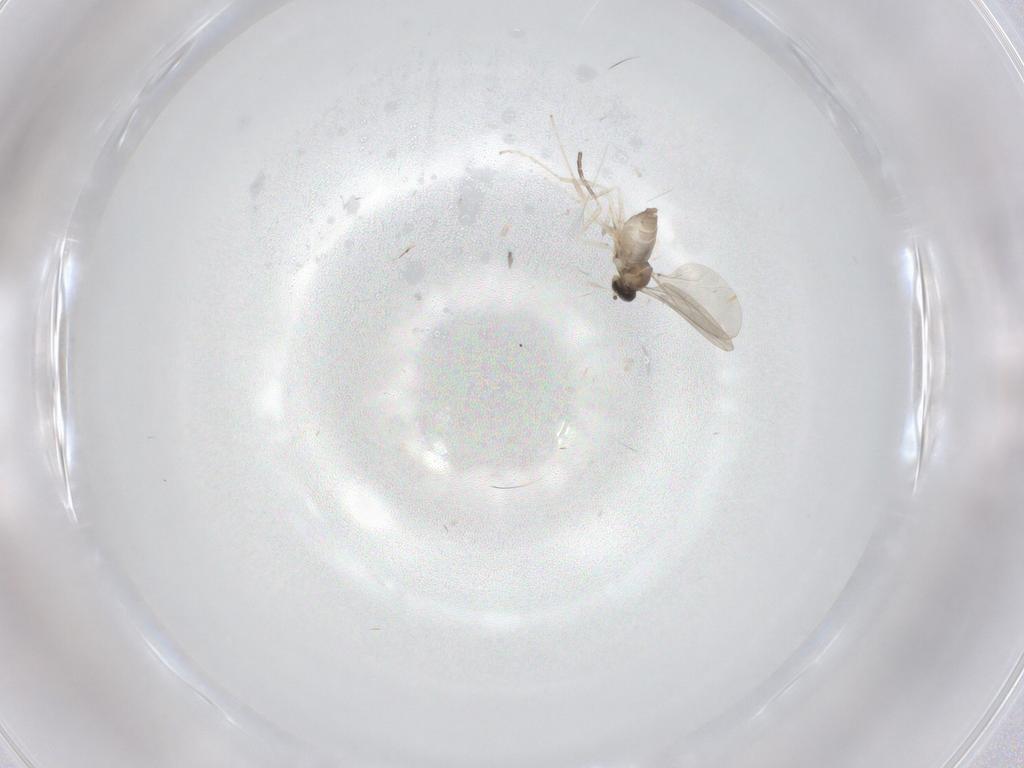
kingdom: Animalia
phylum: Arthropoda
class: Insecta
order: Diptera
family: Cecidomyiidae
